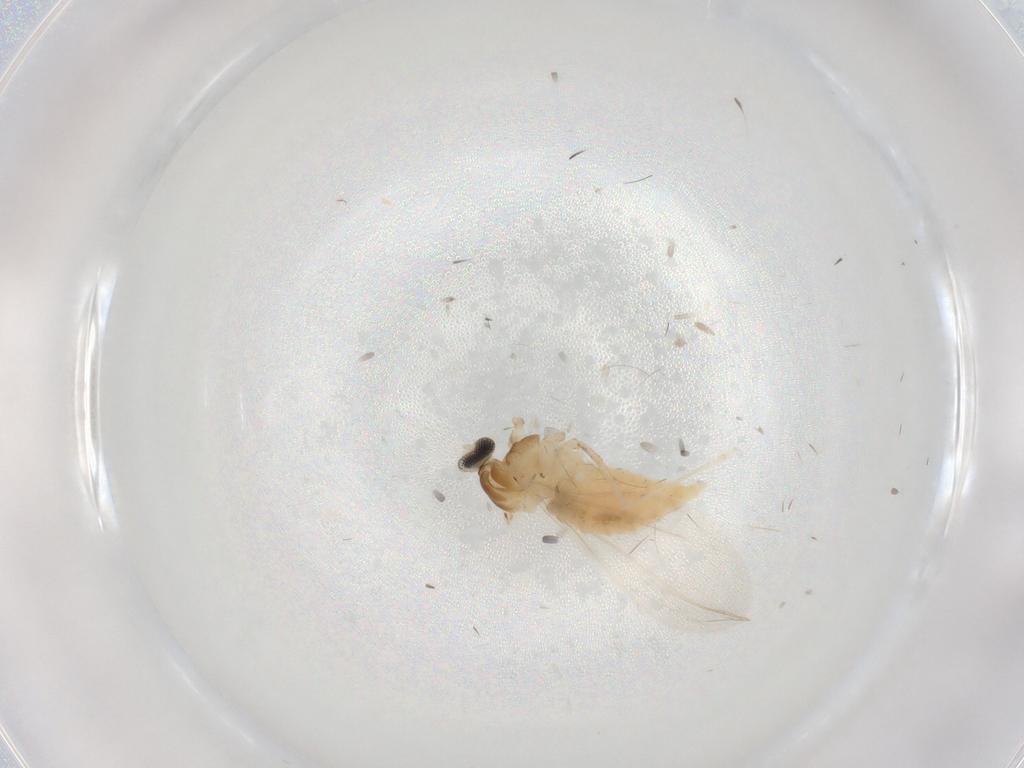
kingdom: Animalia
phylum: Arthropoda
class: Insecta
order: Diptera
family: Cecidomyiidae
